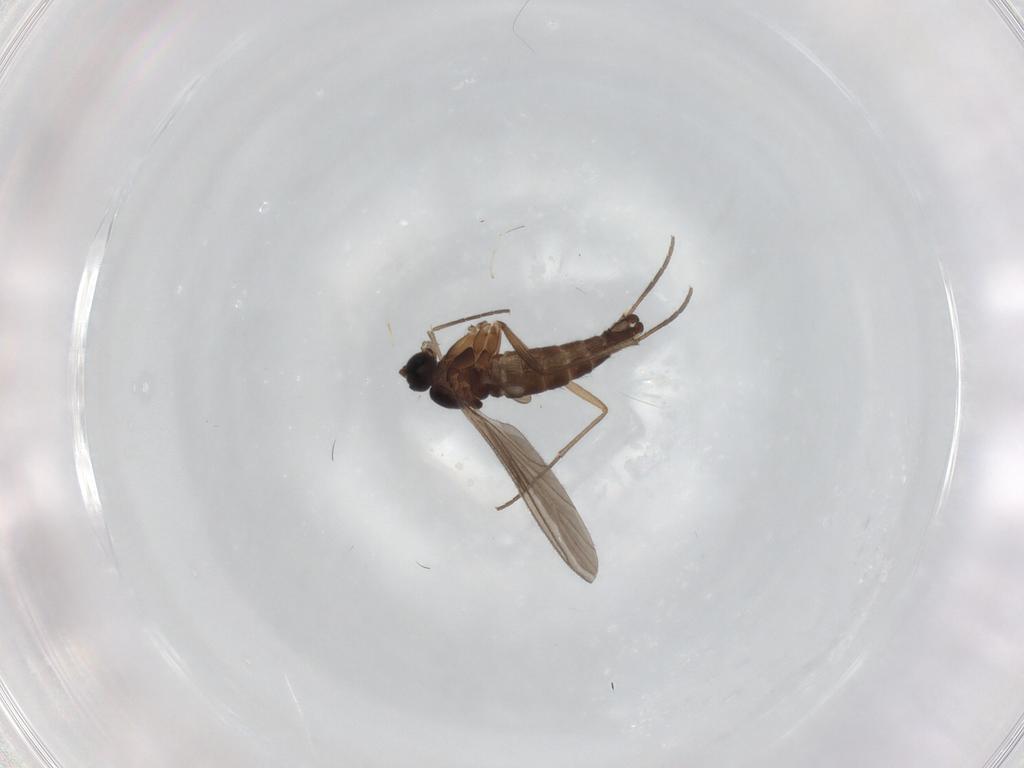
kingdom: Animalia
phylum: Arthropoda
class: Insecta
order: Diptera
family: Sciaridae
